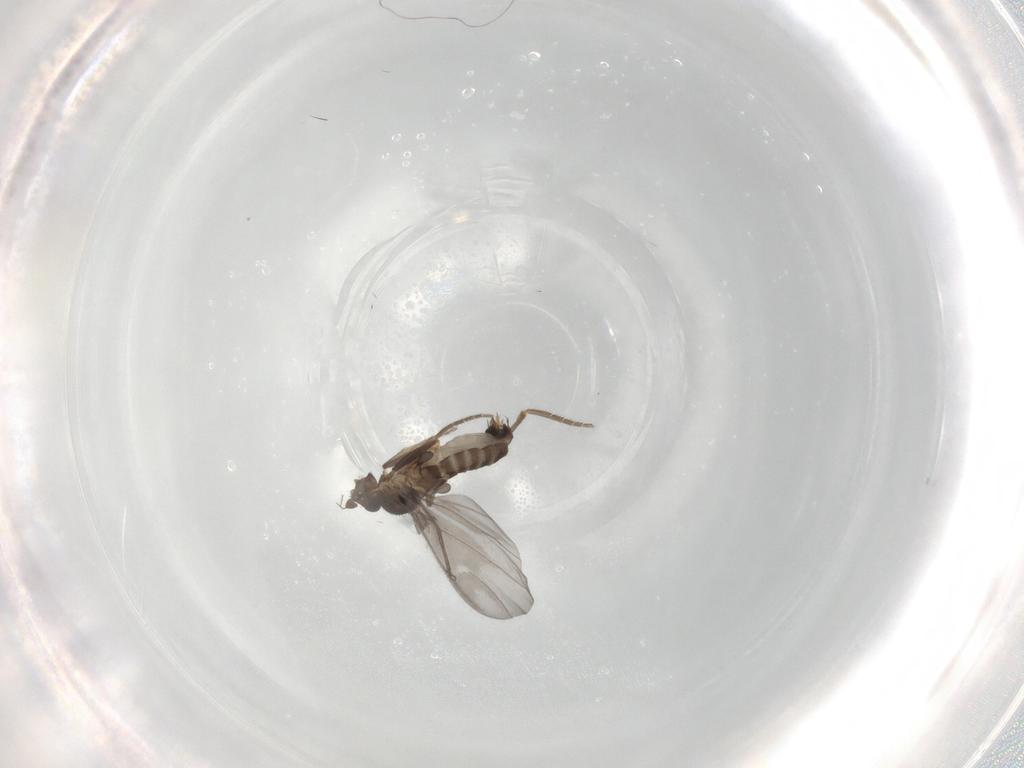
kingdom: Animalia
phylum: Arthropoda
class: Insecta
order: Diptera
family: Phoridae
